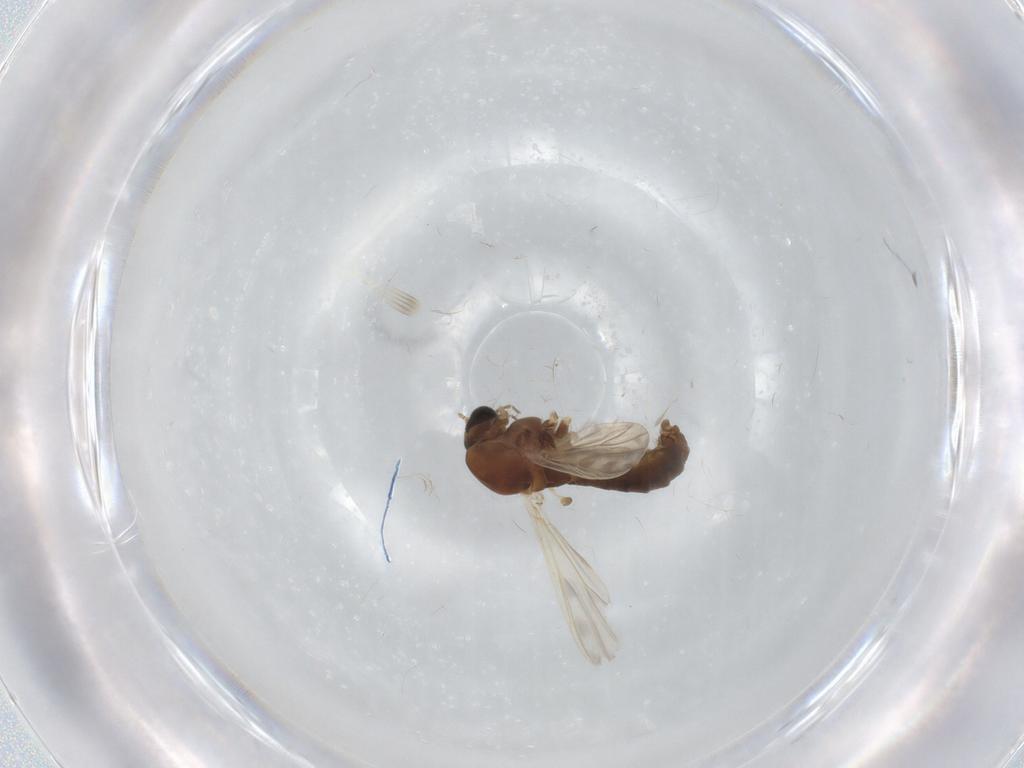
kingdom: Animalia
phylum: Arthropoda
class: Insecta
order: Diptera
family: Chironomidae
